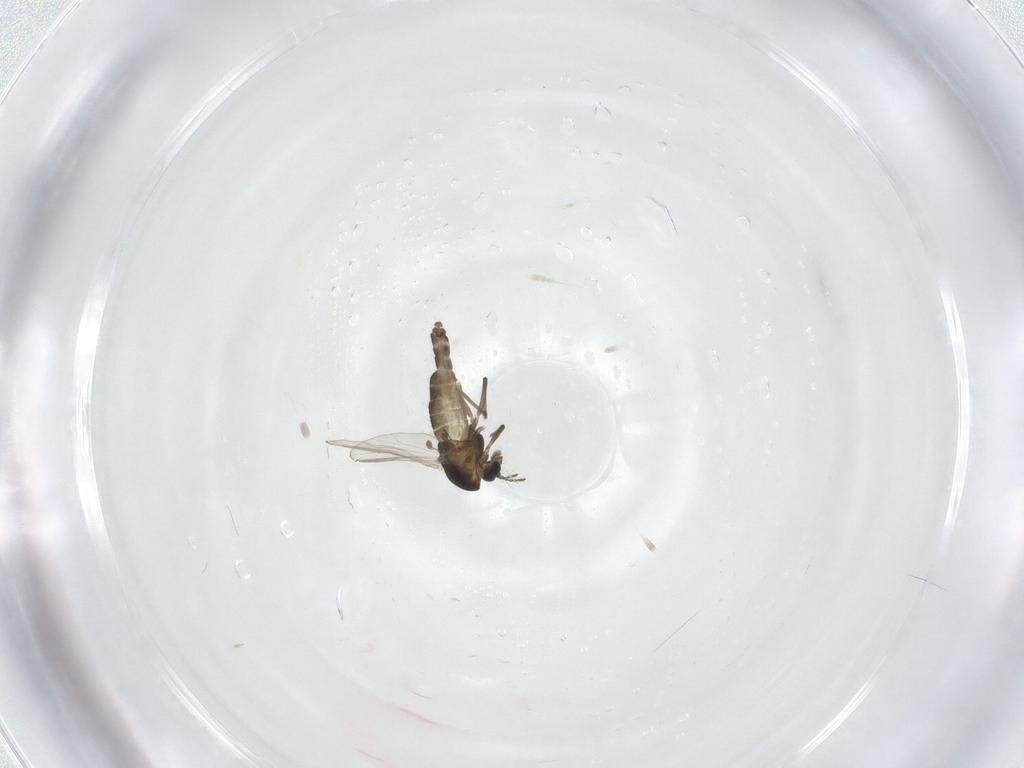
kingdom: Animalia
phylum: Arthropoda
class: Insecta
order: Diptera
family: Chironomidae
